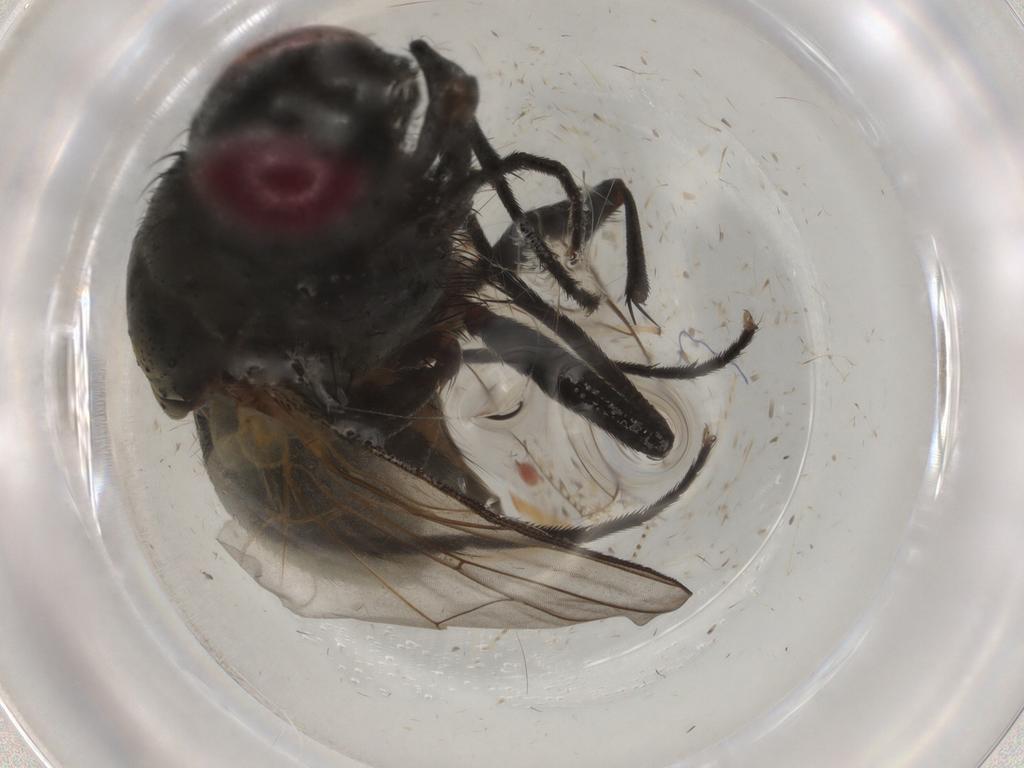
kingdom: Animalia
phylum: Arthropoda
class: Insecta
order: Diptera
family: Phoridae
